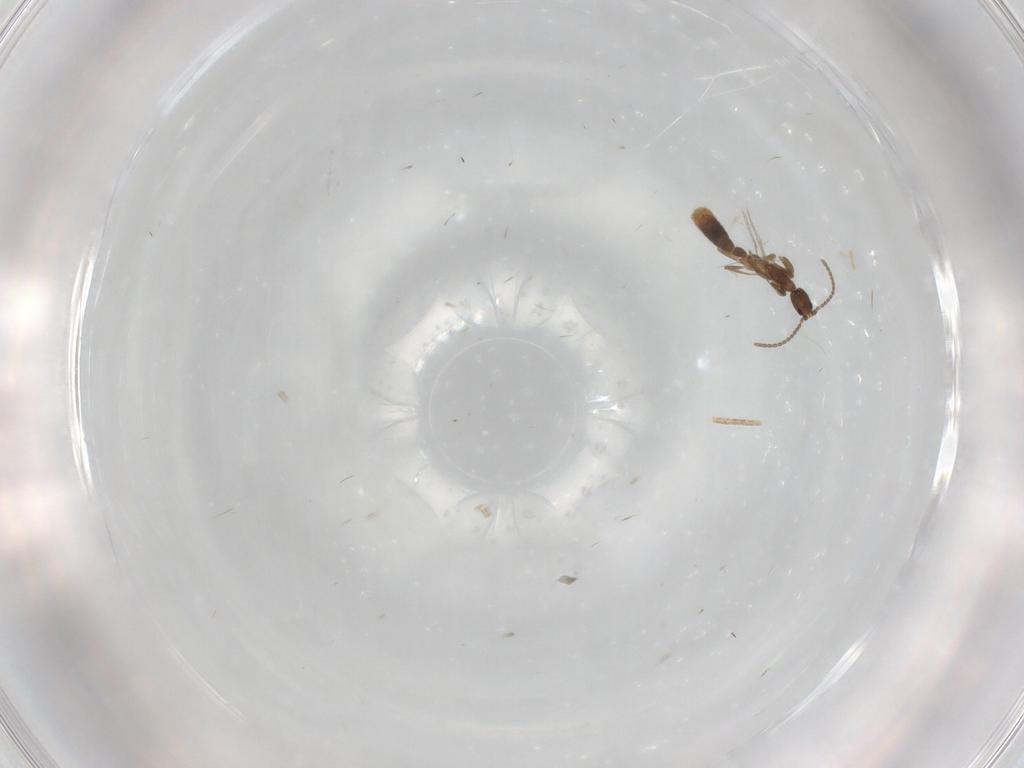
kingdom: Animalia
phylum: Arthropoda
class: Insecta
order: Hymenoptera
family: Formicidae
